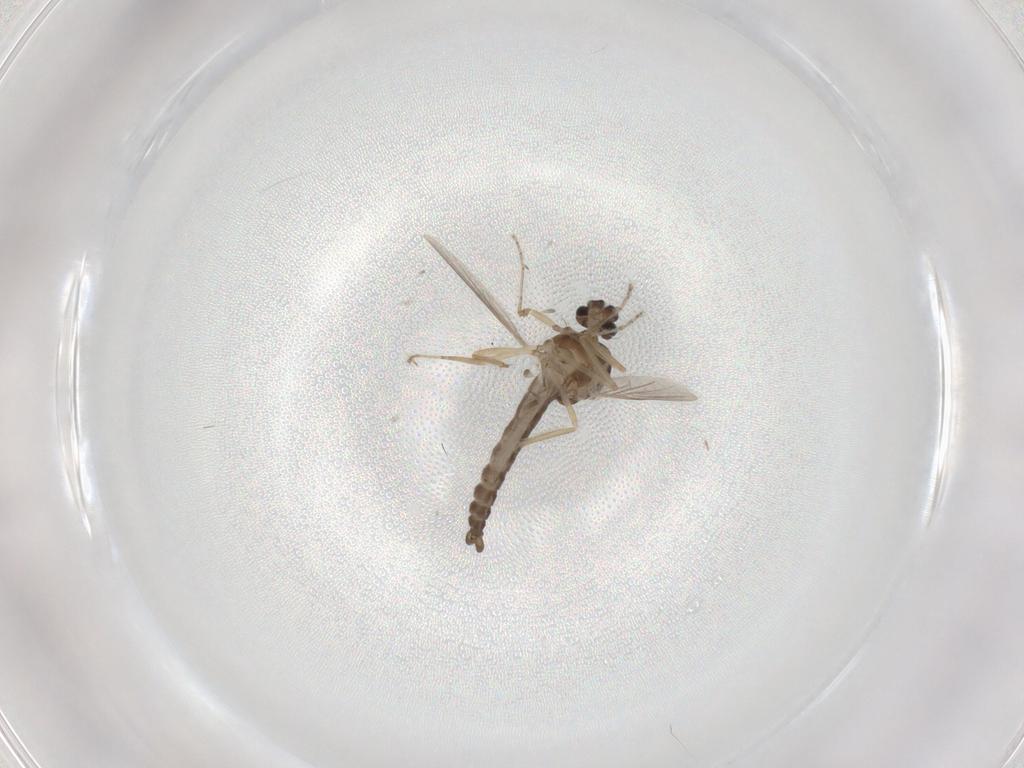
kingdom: Animalia
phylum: Arthropoda
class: Insecta
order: Diptera
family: Ceratopogonidae
